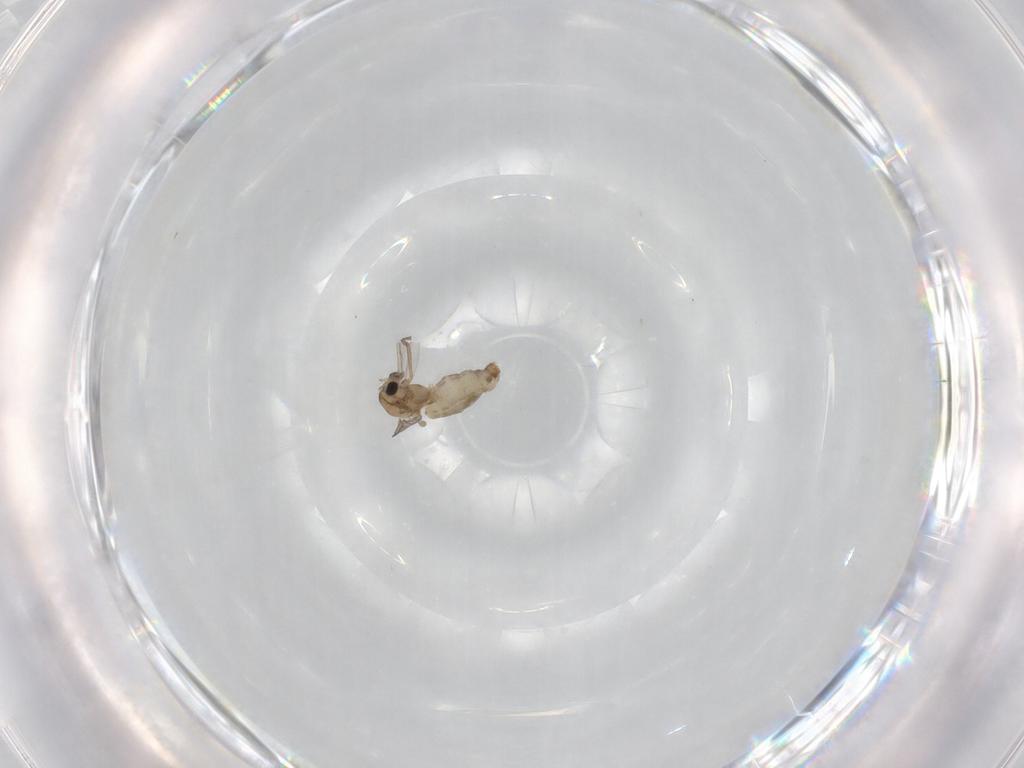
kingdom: Animalia
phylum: Arthropoda
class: Insecta
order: Diptera
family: Chironomidae
